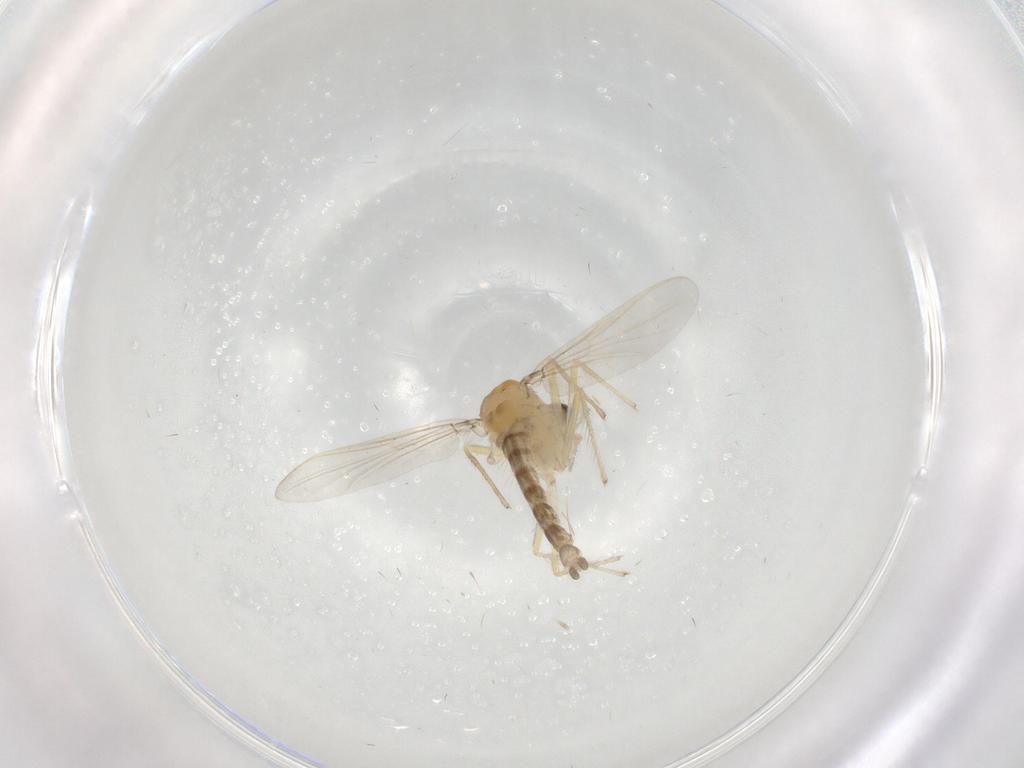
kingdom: Animalia
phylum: Arthropoda
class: Insecta
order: Diptera
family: Chironomidae
